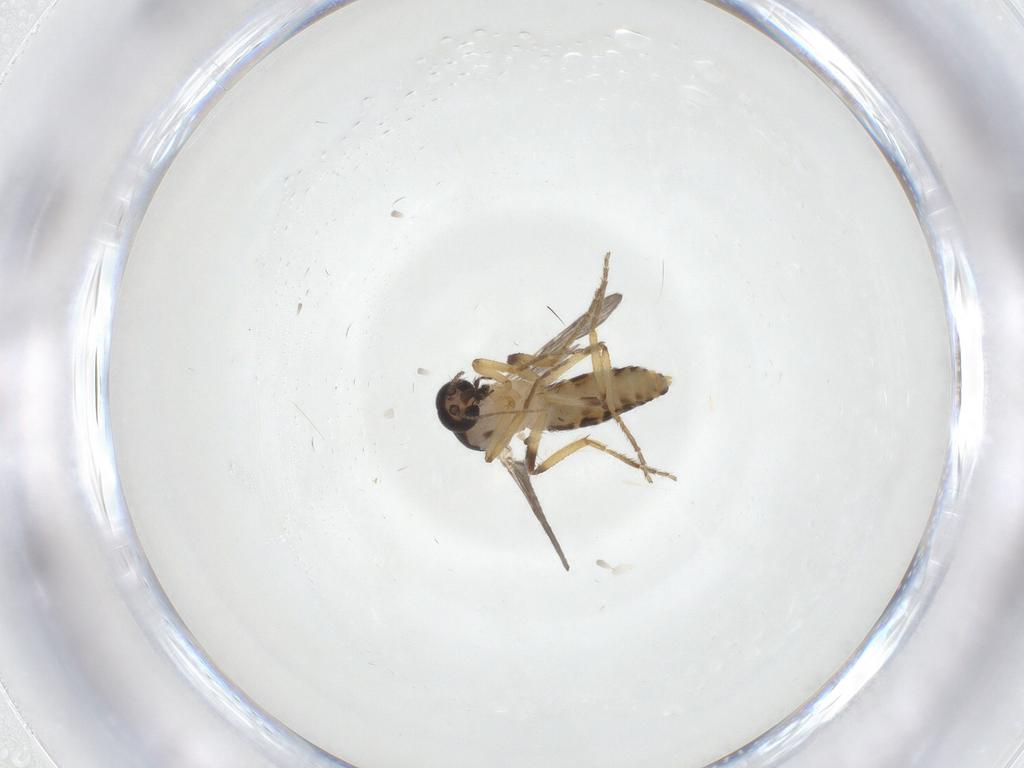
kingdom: Animalia
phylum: Arthropoda
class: Insecta
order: Diptera
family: Ceratopogonidae
